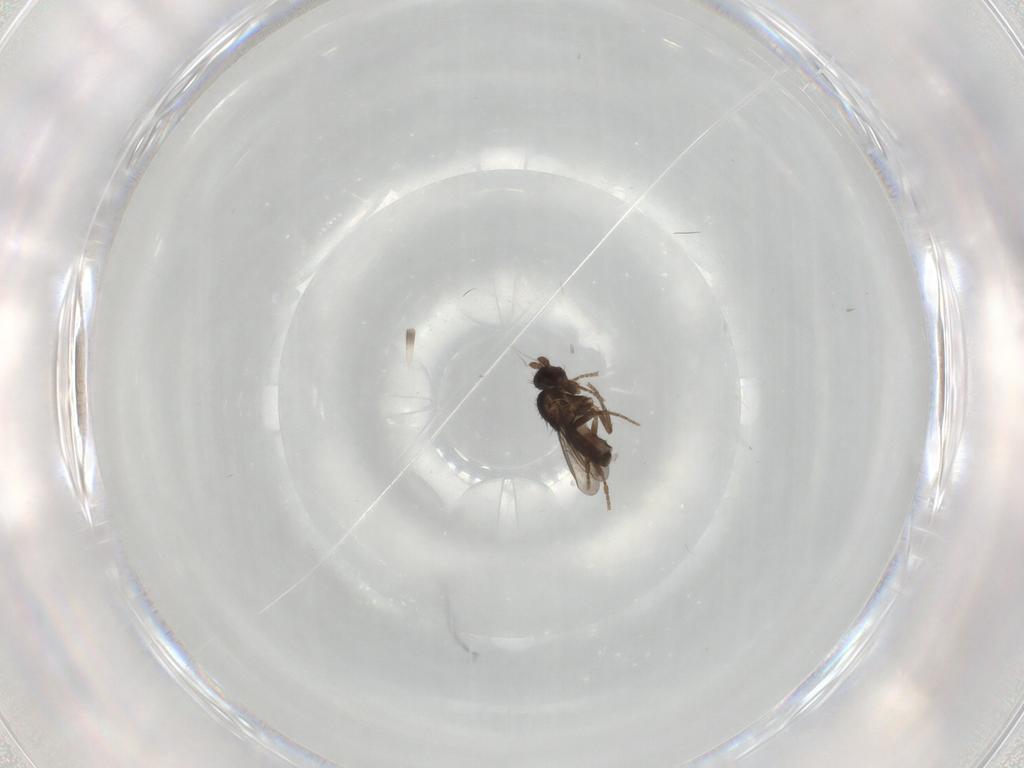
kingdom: Animalia
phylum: Arthropoda
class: Insecta
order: Diptera
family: Sphaeroceridae
